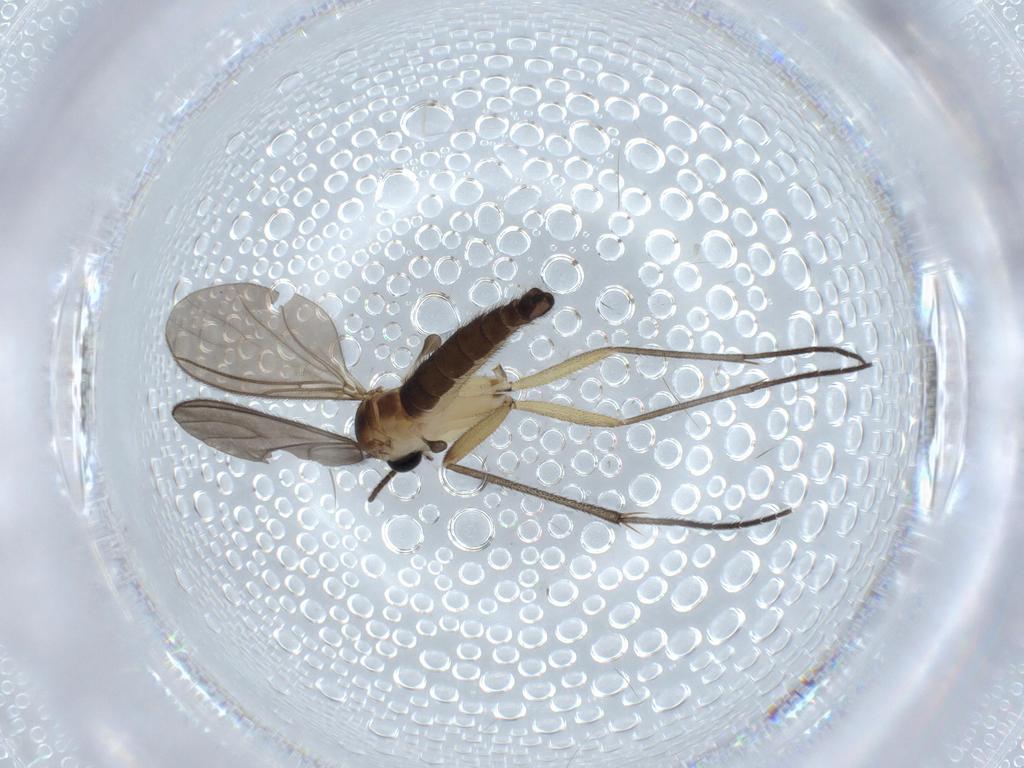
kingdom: Animalia
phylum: Arthropoda
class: Insecta
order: Diptera
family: Sciaridae
